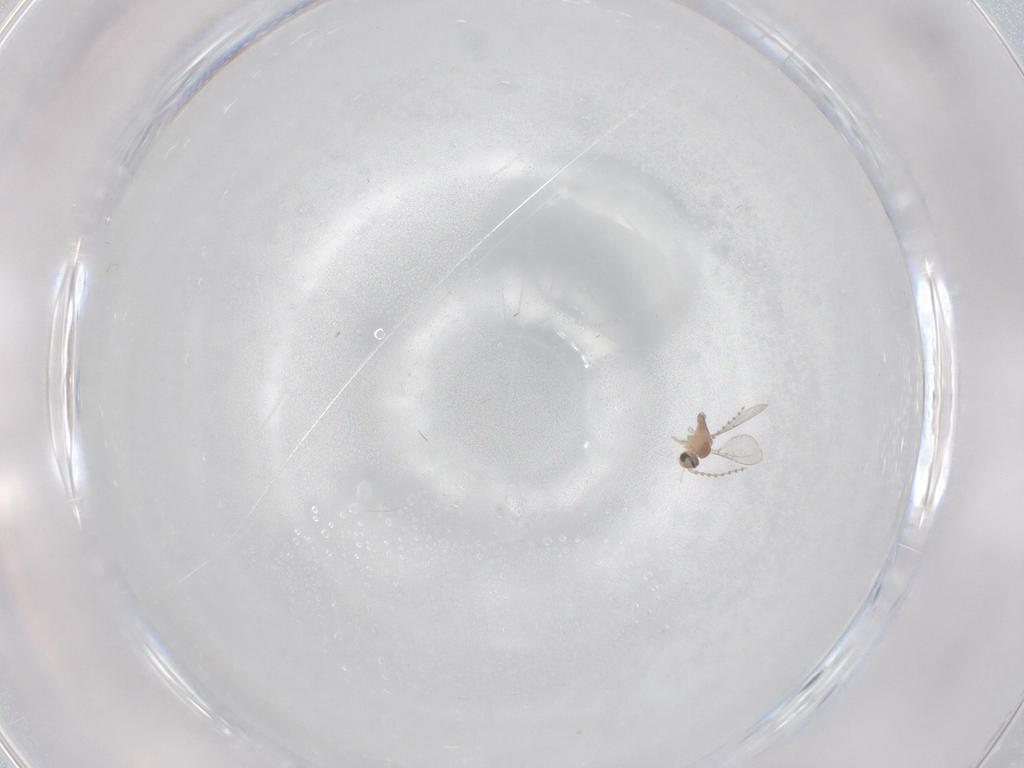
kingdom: Animalia
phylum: Arthropoda
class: Insecta
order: Diptera
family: Cecidomyiidae
